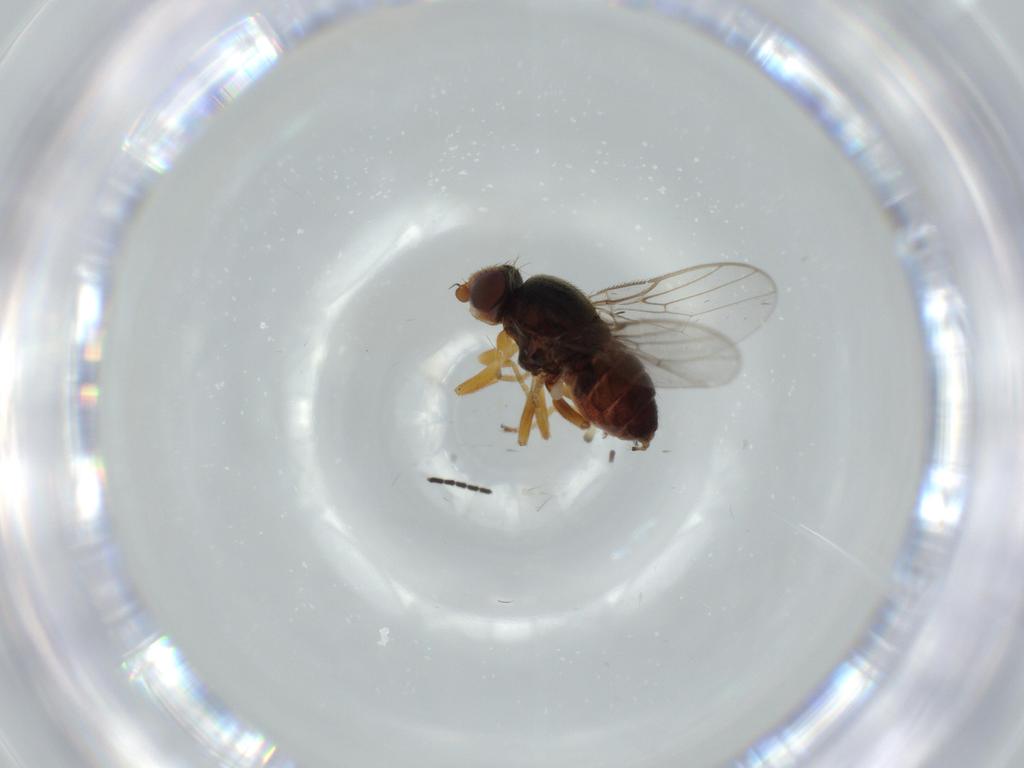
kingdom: Animalia
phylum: Arthropoda
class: Insecta
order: Diptera
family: Chloropidae
